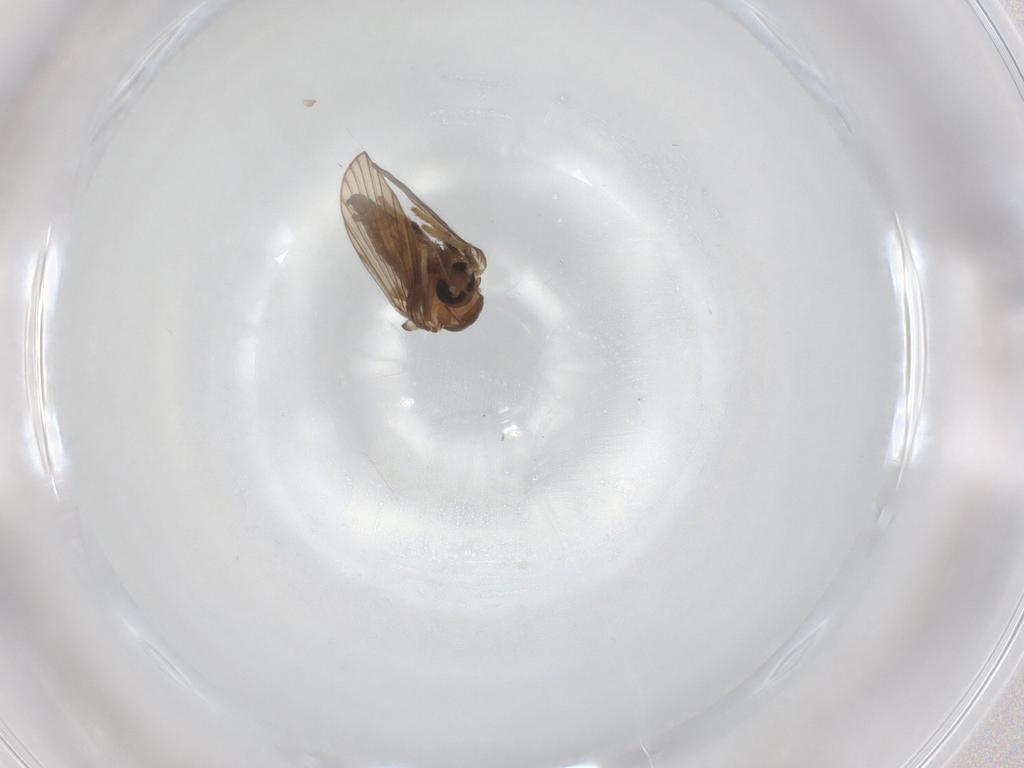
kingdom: Animalia
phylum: Arthropoda
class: Insecta
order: Diptera
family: Psychodidae
